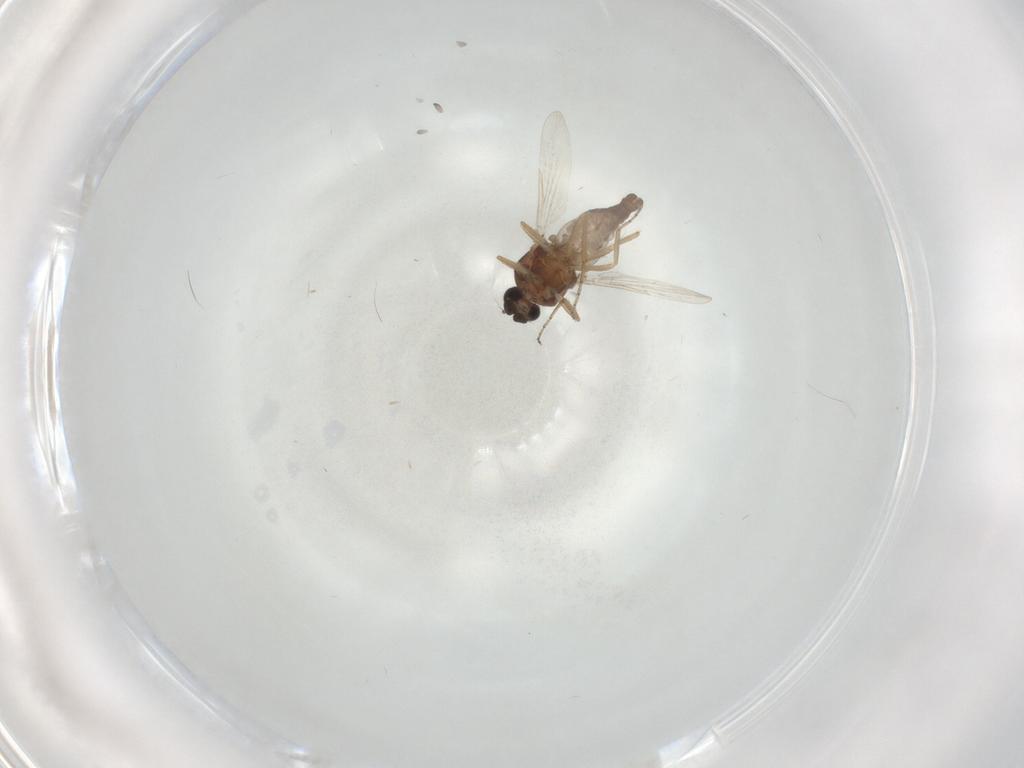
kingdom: Animalia
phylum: Arthropoda
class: Insecta
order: Diptera
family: Ceratopogonidae
